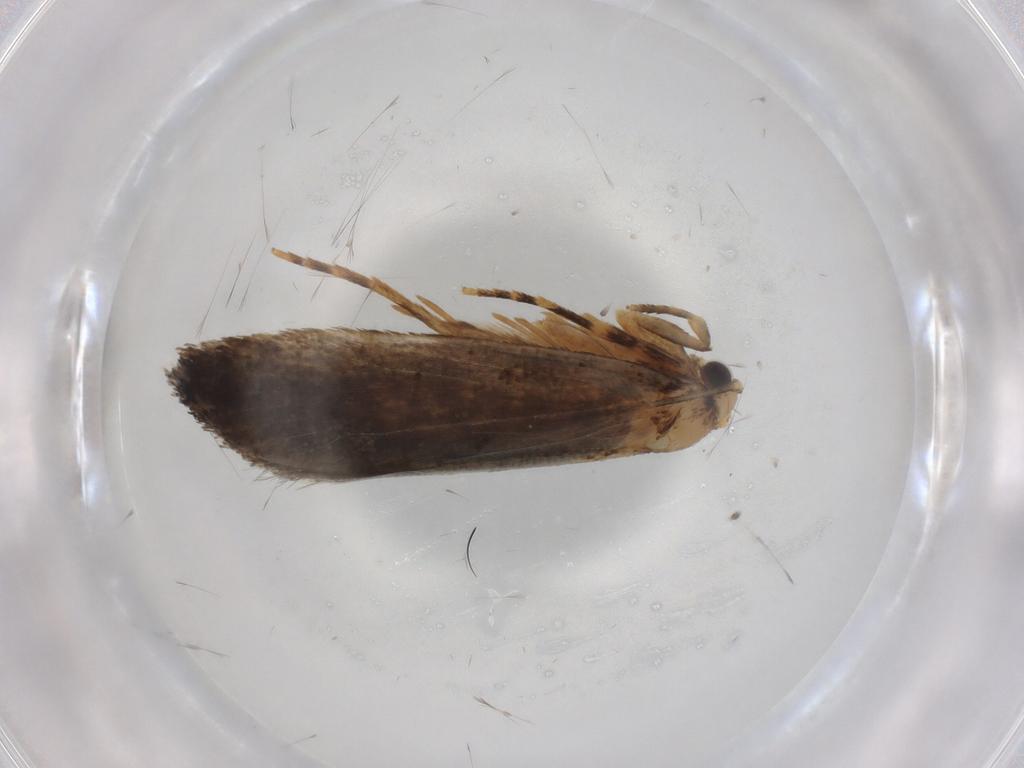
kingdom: Animalia
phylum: Arthropoda
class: Insecta
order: Lepidoptera
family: Tineidae
